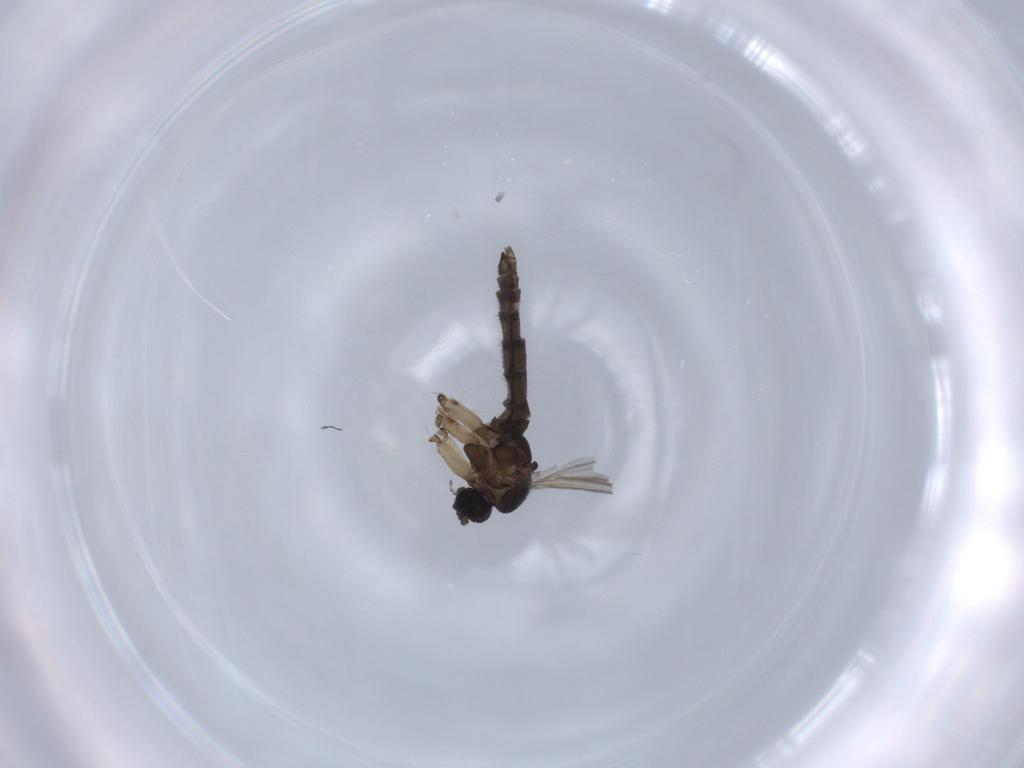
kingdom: Animalia
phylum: Arthropoda
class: Insecta
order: Diptera
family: Sciaridae
